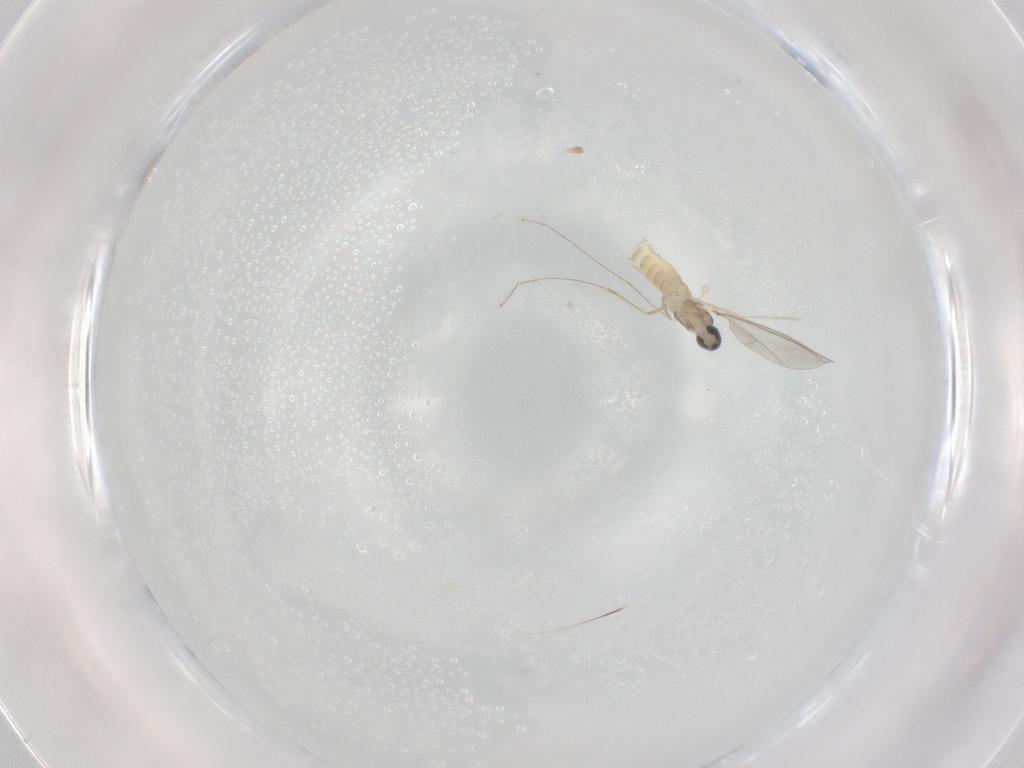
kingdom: Animalia
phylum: Arthropoda
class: Insecta
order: Diptera
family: Cecidomyiidae
